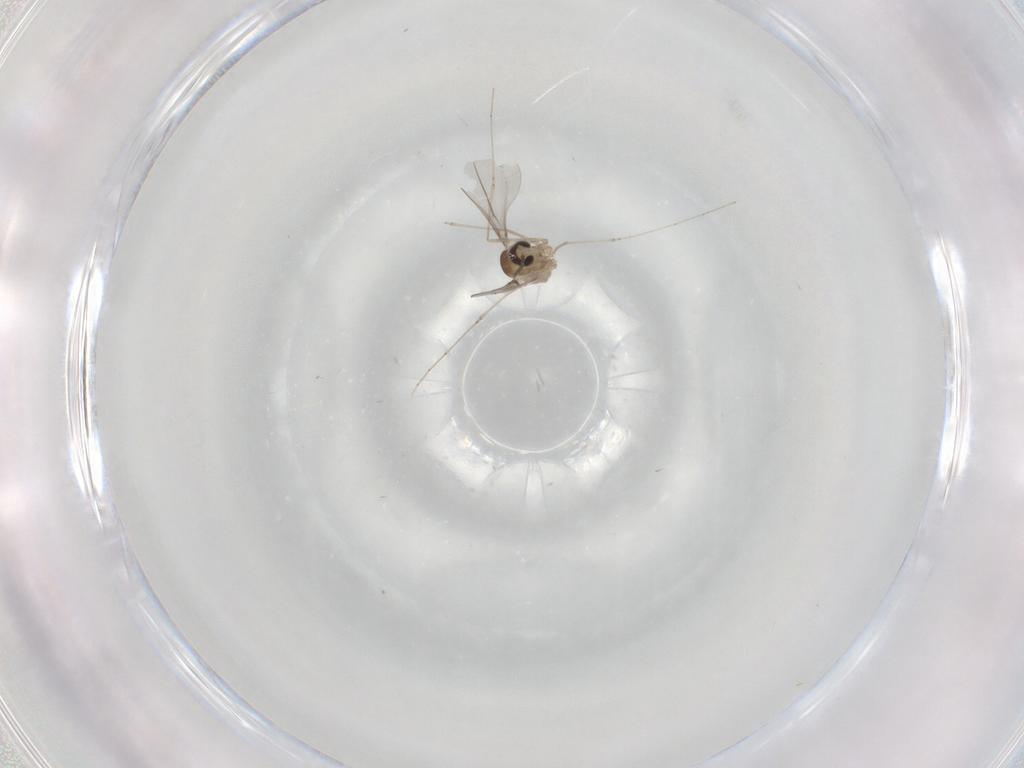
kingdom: Animalia
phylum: Arthropoda
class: Insecta
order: Diptera
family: Cecidomyiidae
